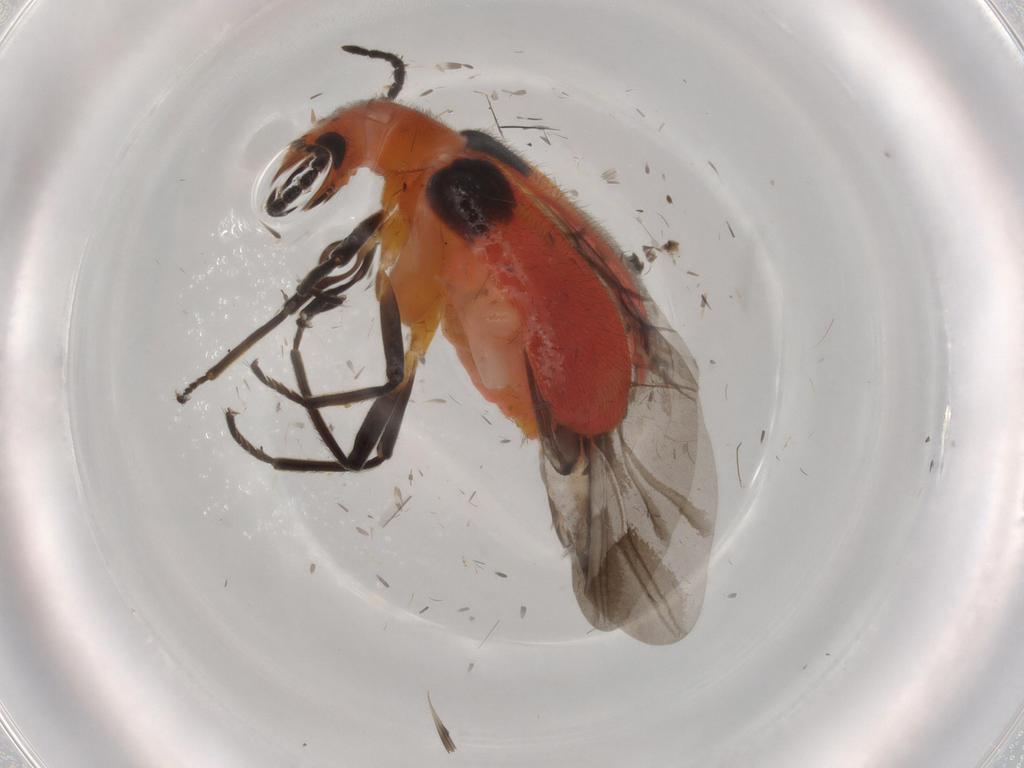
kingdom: Animalia
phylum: Arthropoda
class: Insecta
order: Coleoptera
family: Melyridae
